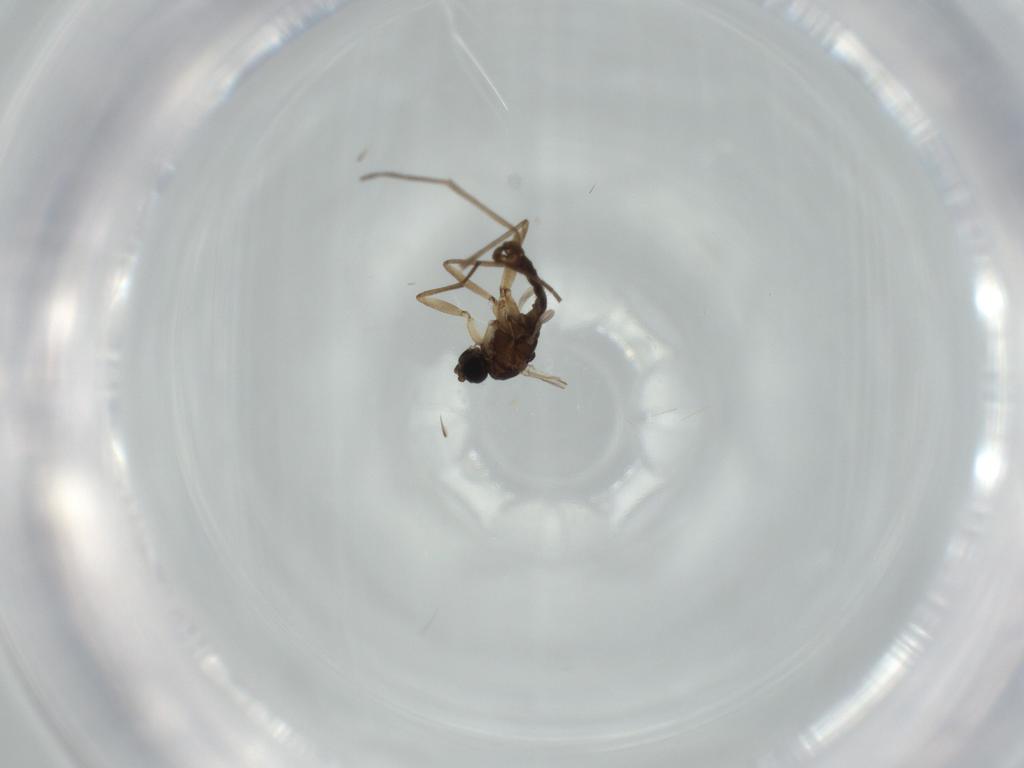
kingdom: Animalia
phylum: Arthropoda
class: Insecta
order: Diptera
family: Sciaridae
